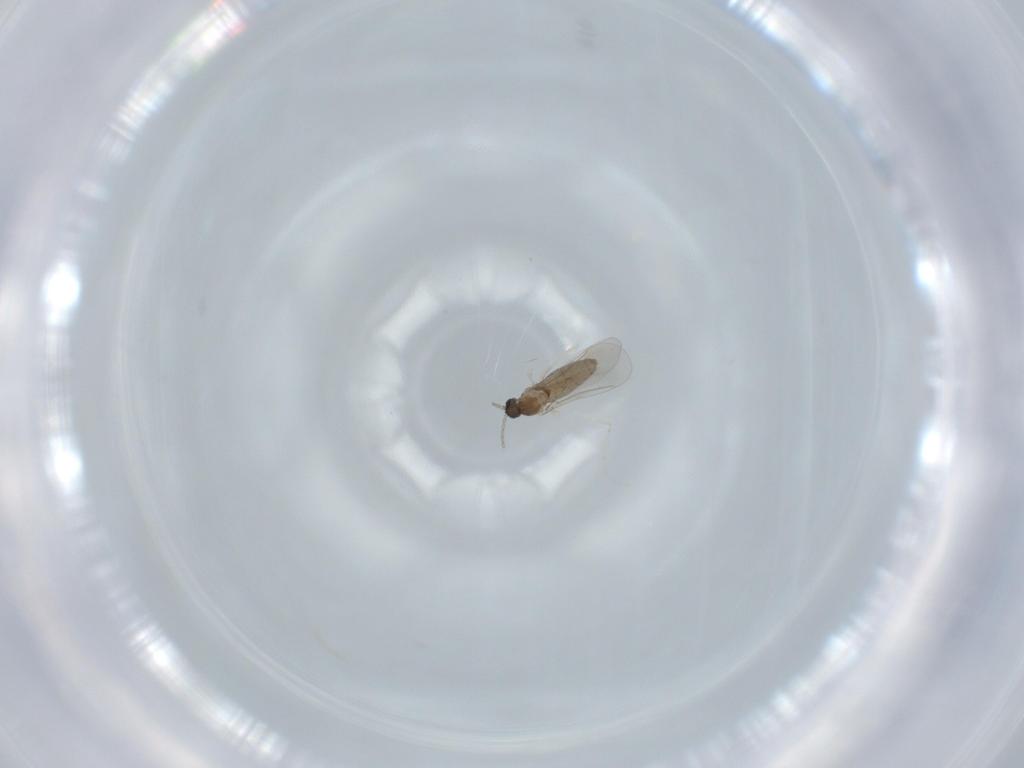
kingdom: Animalia
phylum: Arthropoda
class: Insecta
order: Diptera
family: Cecidomyiidae
